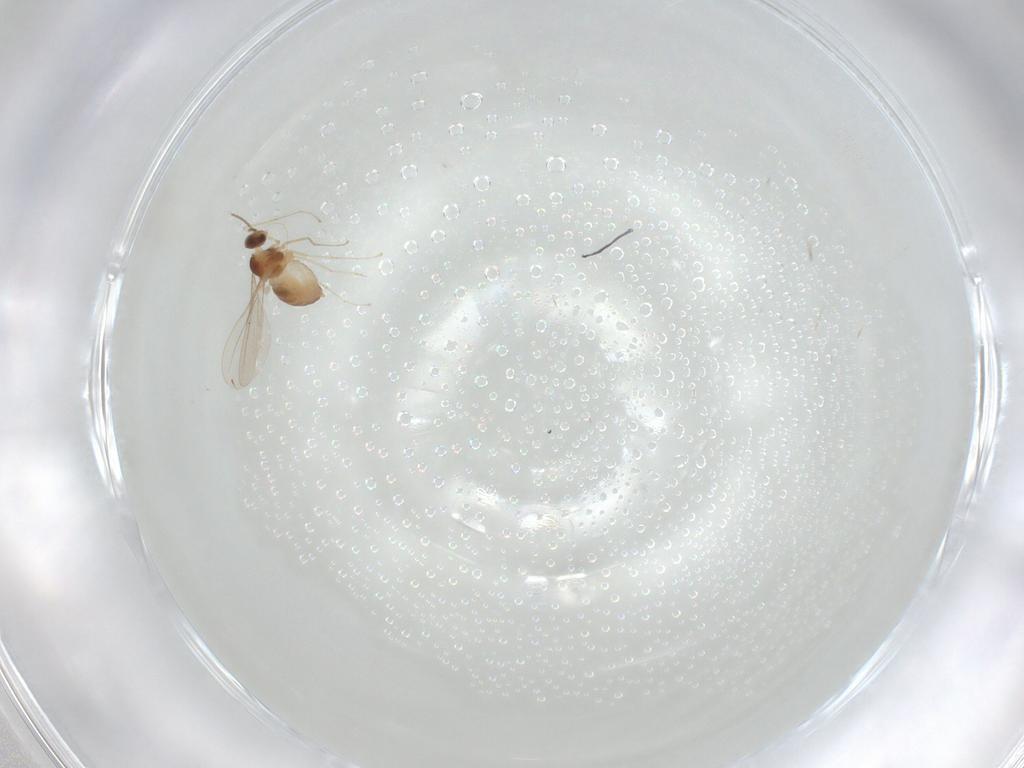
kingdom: Animalia
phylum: Arthropoda
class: Insecta
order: Diptera
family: Cecidomyiidae
